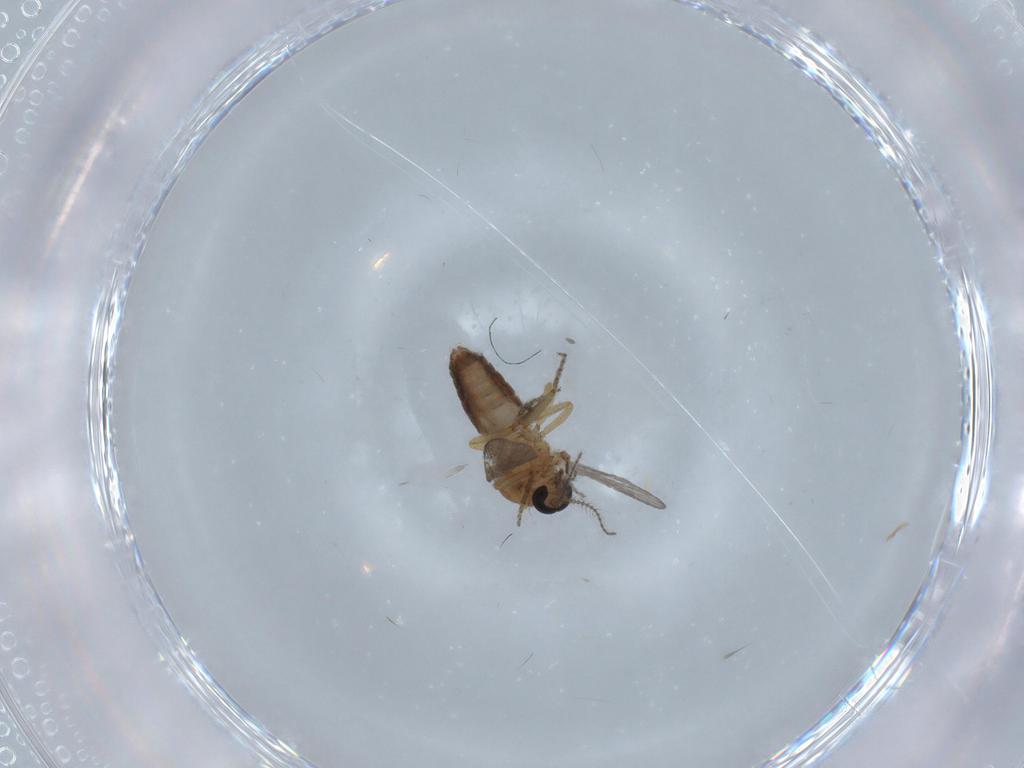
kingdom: Animalia
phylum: Arthropoda
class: Insecta
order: Diptera
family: Ceratopogonidae
